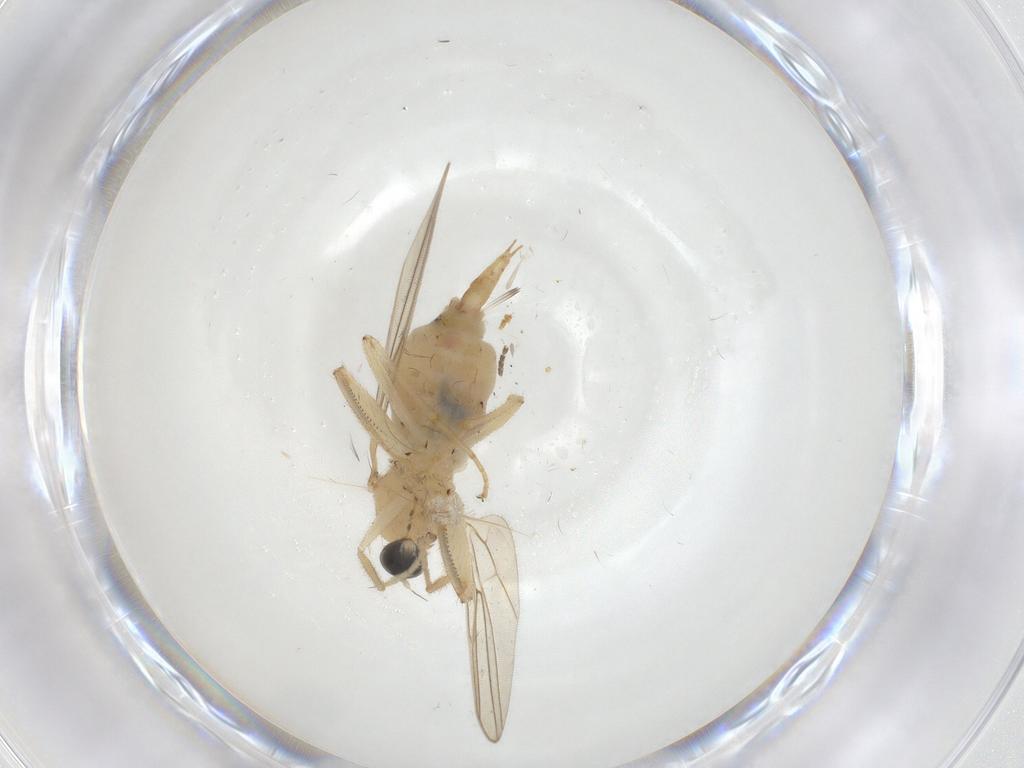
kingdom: Animalia
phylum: Arthropoda
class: Insecta
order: Diptera
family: Hybotidae
